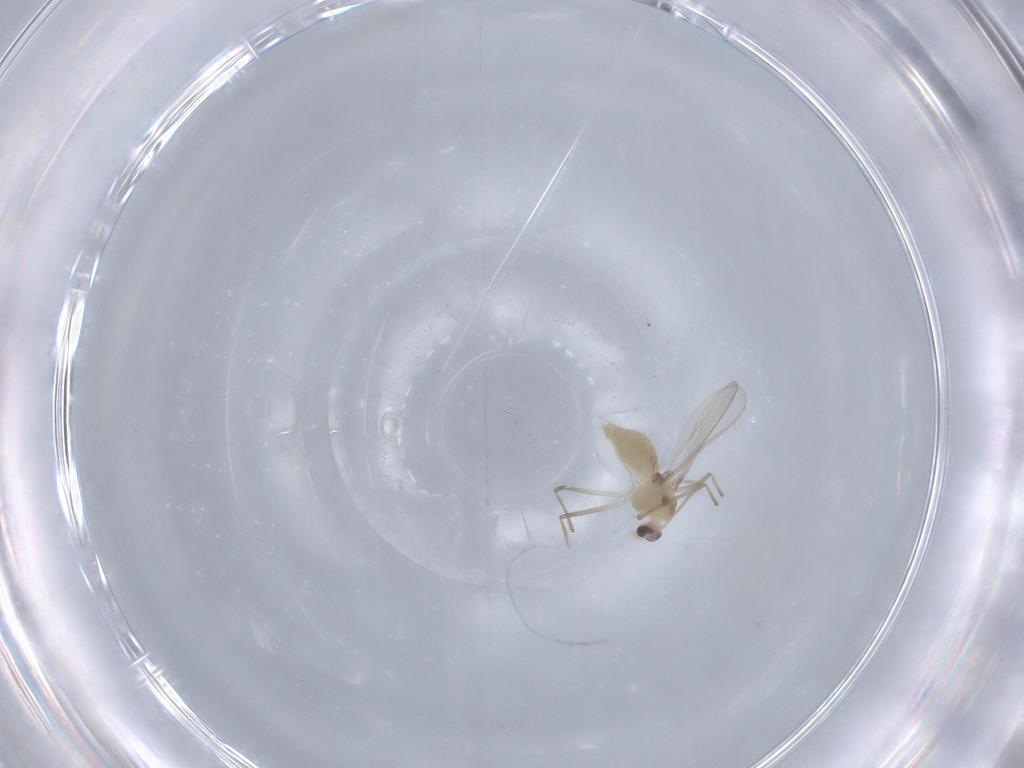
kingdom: Animalia
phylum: Arthropoda
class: Insecta
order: Diptera
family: Chironomidae
